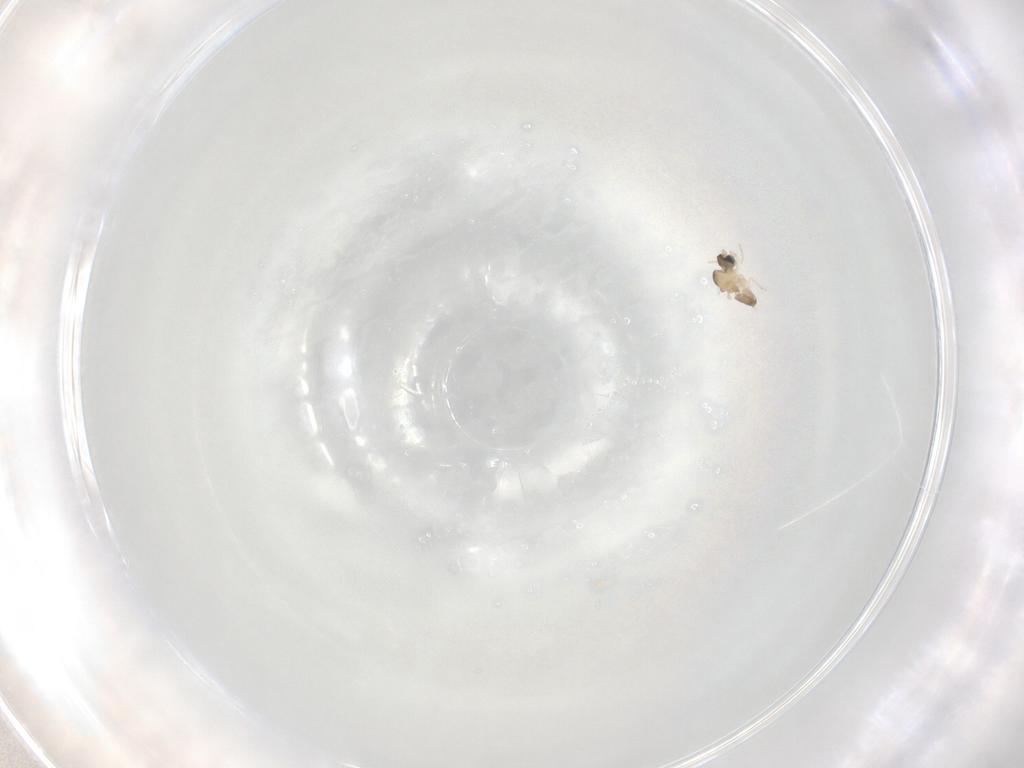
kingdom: Animalia
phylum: Arthropoda
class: Insecta
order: Diptera
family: Cecidomyiidae
